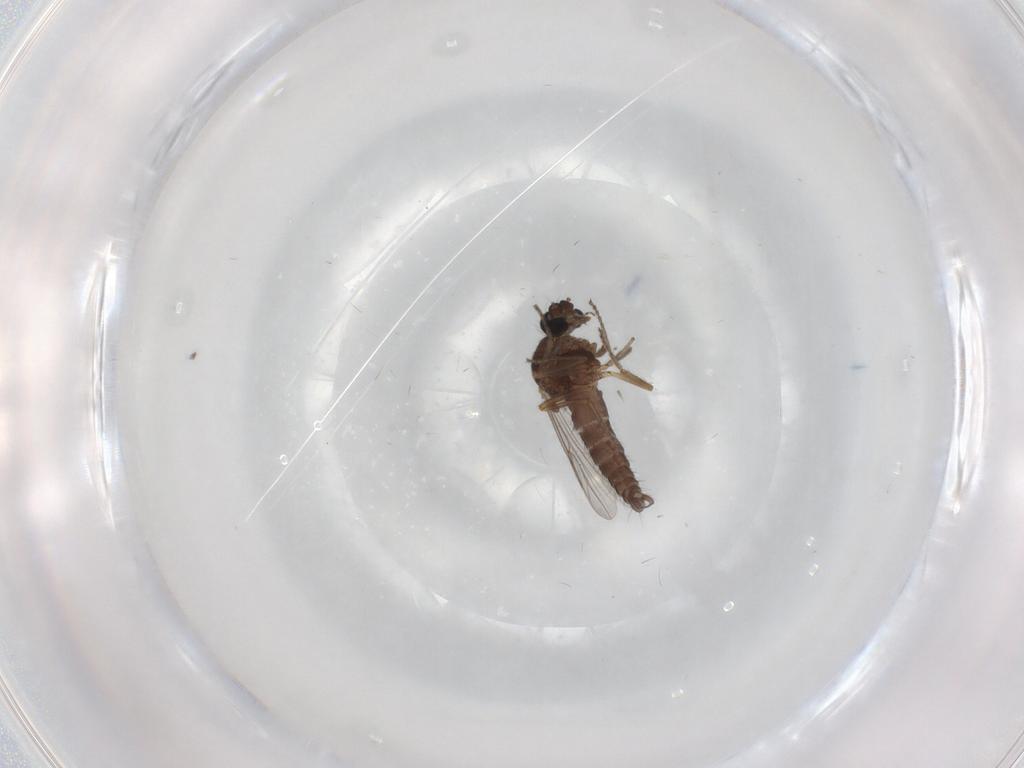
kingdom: Animalia
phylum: Arthropoda
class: Insecta
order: Diptera
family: Ceratopogonidae
